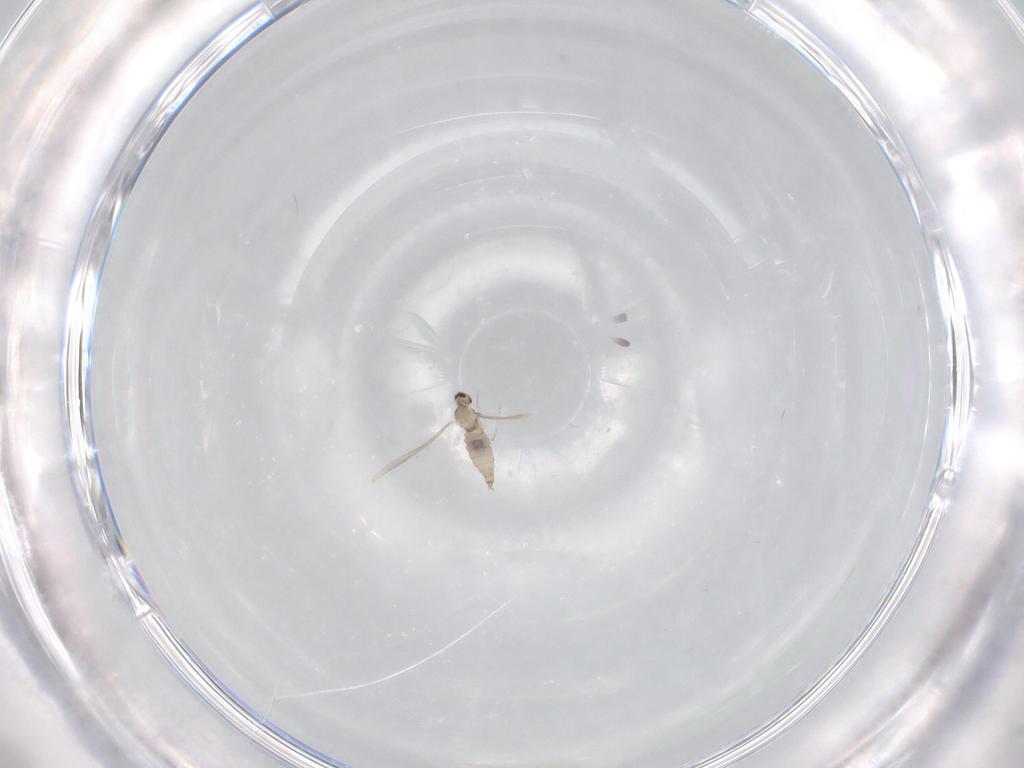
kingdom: Animalia
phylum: Arthropoda
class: Insecta
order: Diptera
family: Cecidomyiidae
